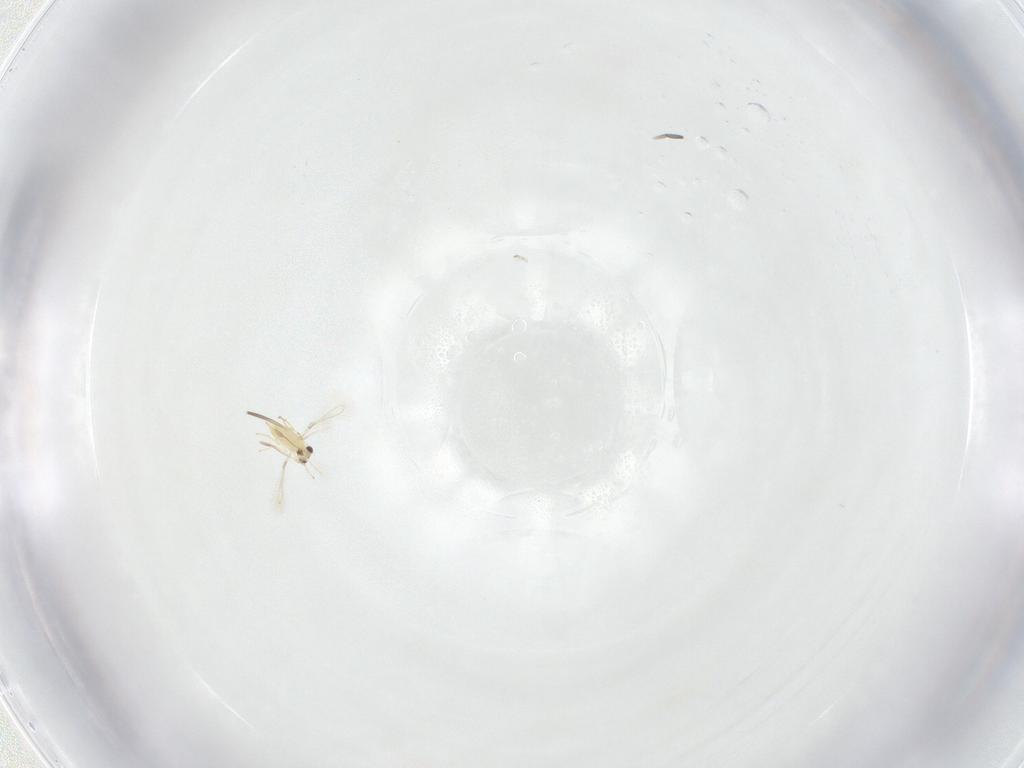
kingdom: Animalia
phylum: Arthropoda
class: Insecta
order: Hymenoptera
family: Mymaridae
